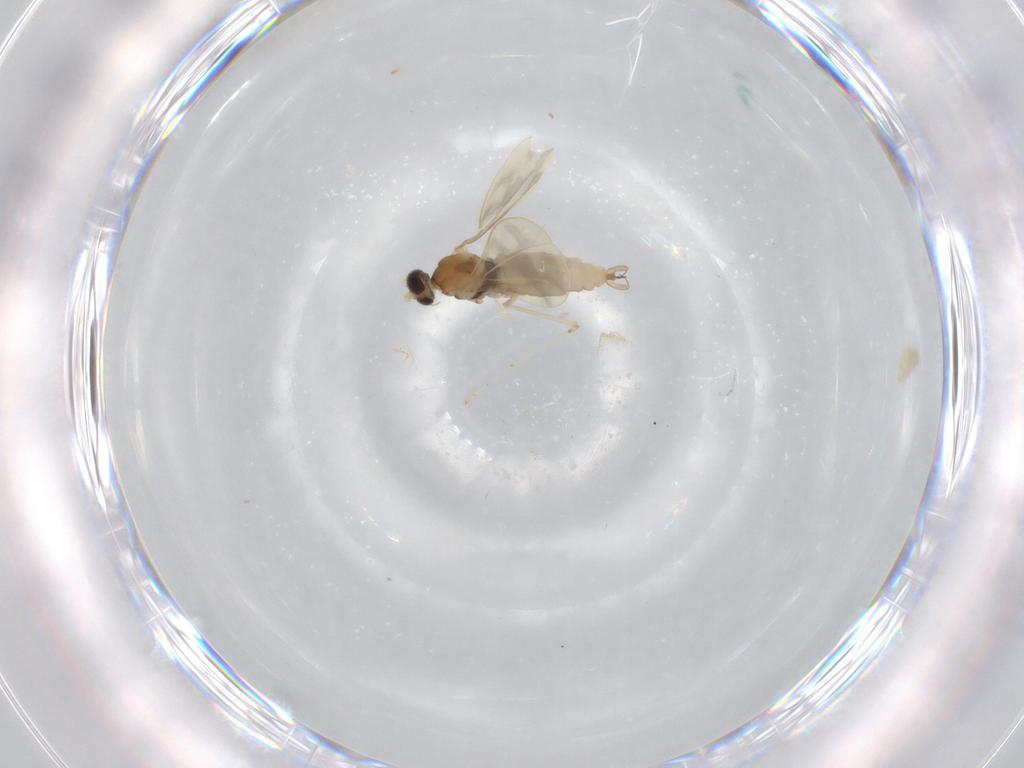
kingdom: Animalia
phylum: Arthropoda
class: Insecta
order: Diptera
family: Cecidomyiidae
